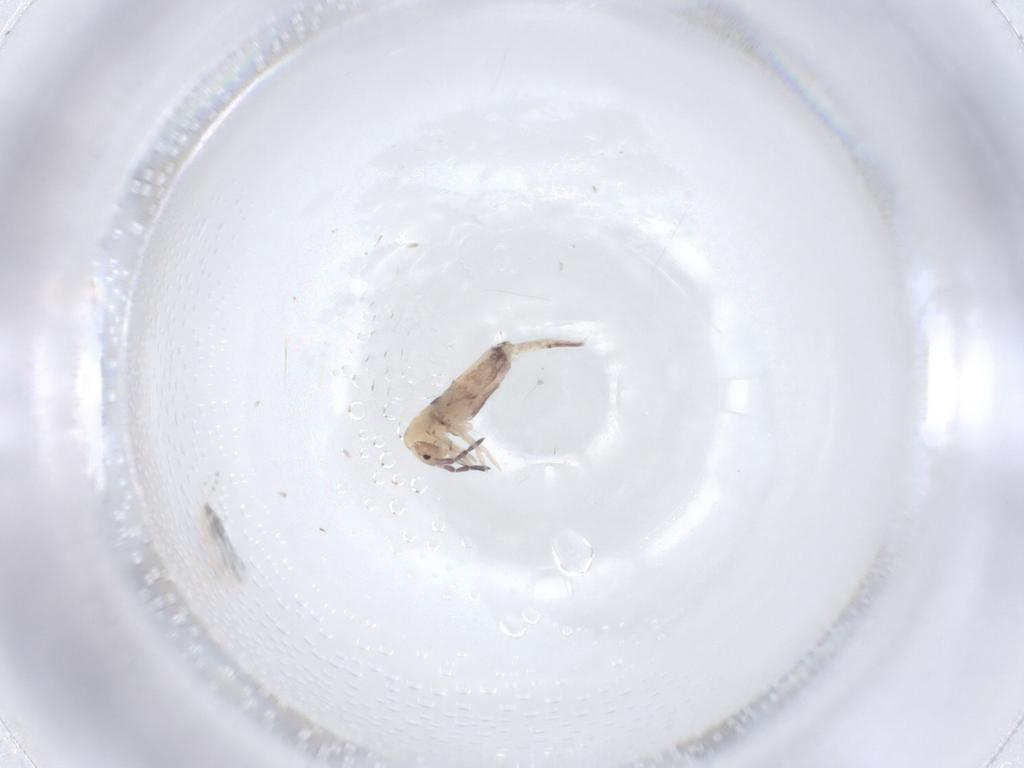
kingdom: Animalia
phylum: Arthropoda
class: Collembola
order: Entomobryomorpha
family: Entomobryidae
